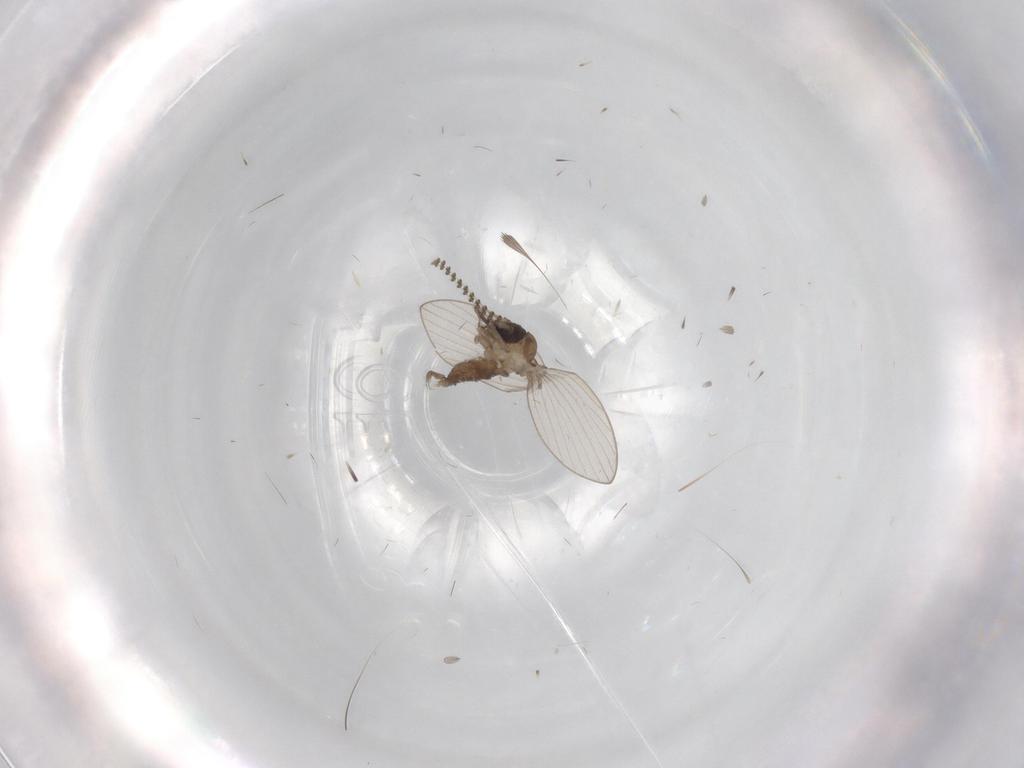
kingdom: Animalia
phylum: Arthropoda
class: Insecta
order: Diptera
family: Psychodidae
